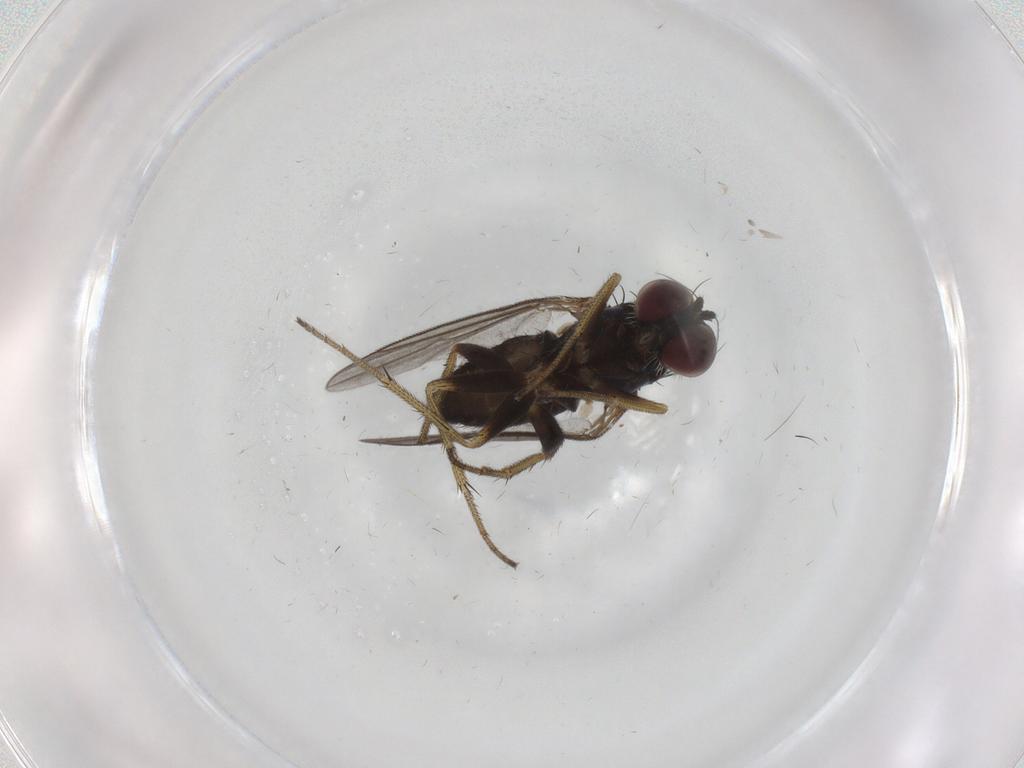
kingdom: Animalia
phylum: Arthropoda
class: Insecta
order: Diptera
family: Chironomidae
